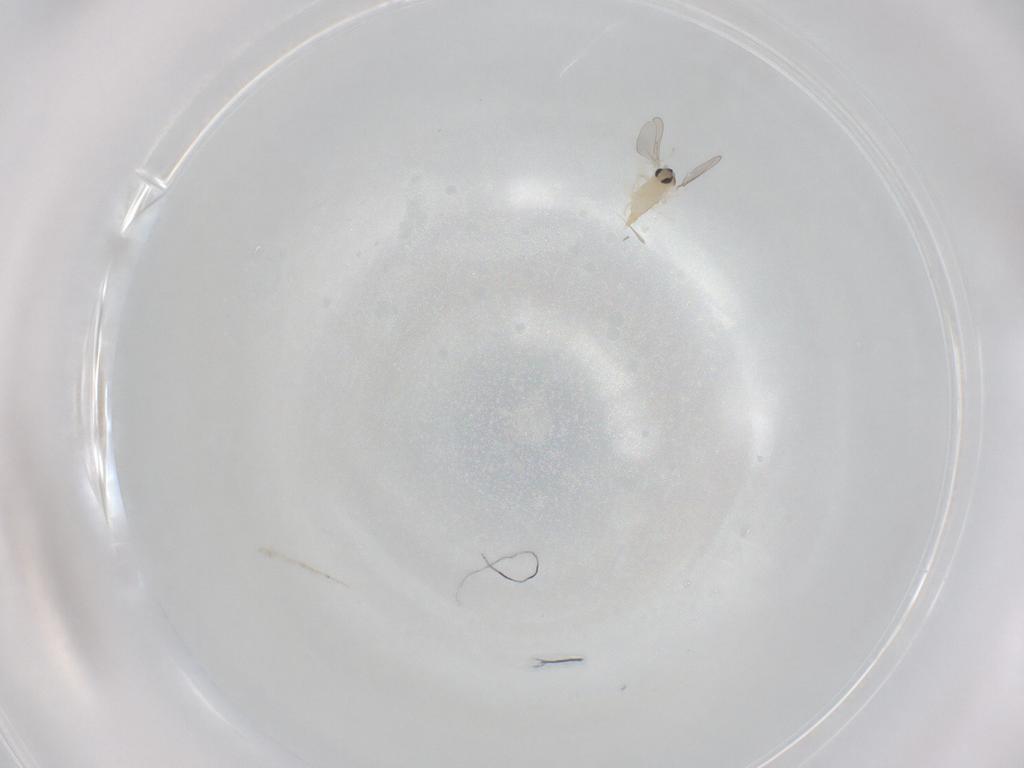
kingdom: Animalia
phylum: Arthropoda
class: Insecta
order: Diptera
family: Cecidomyiidae
